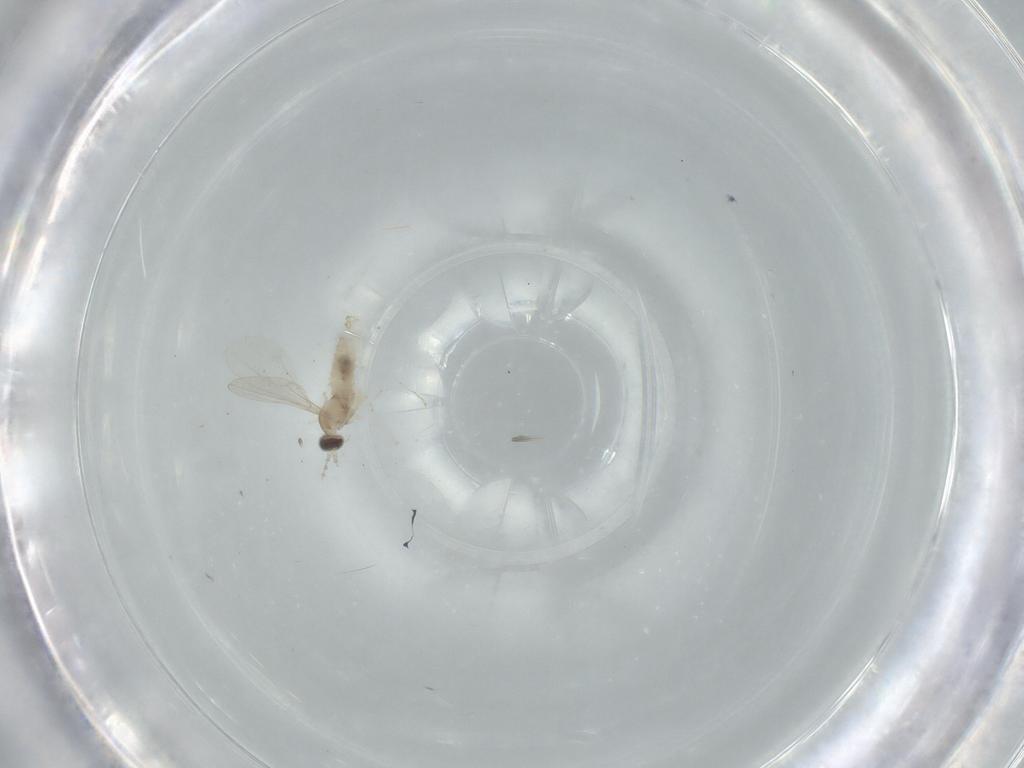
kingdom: Animalia
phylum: Arthropoda
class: Insecta
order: Diptera
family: Cecidomyiidae
